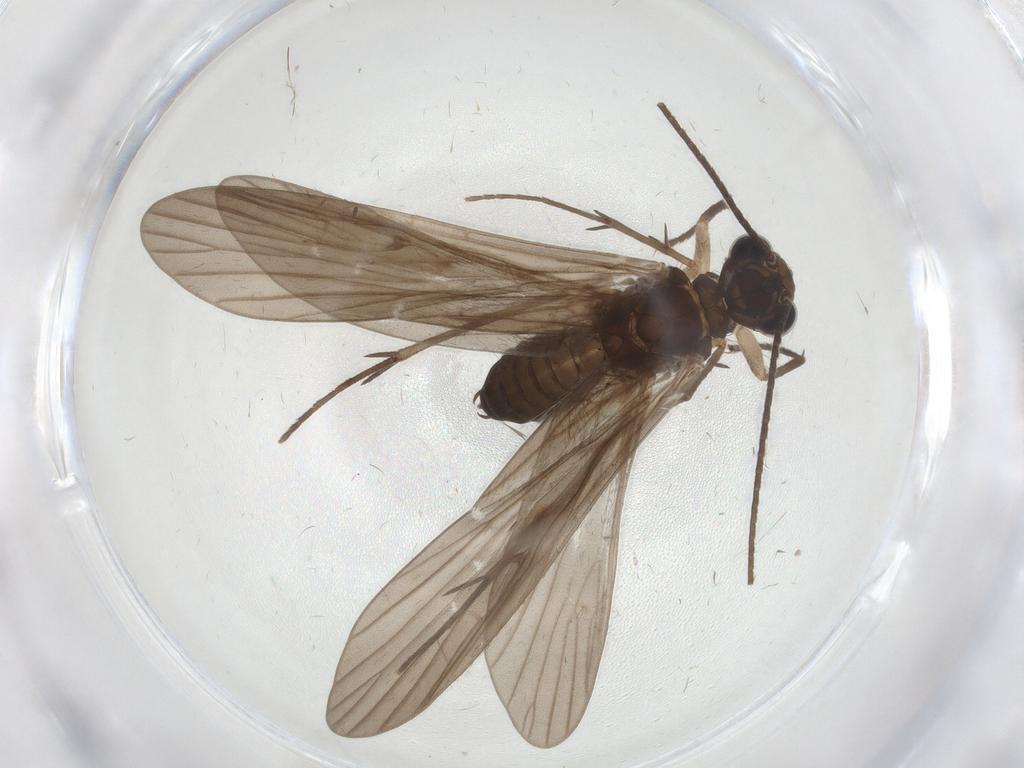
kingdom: Animalia
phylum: Arthropoda
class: Insecta
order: Trichoptera
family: Philopotamidae
